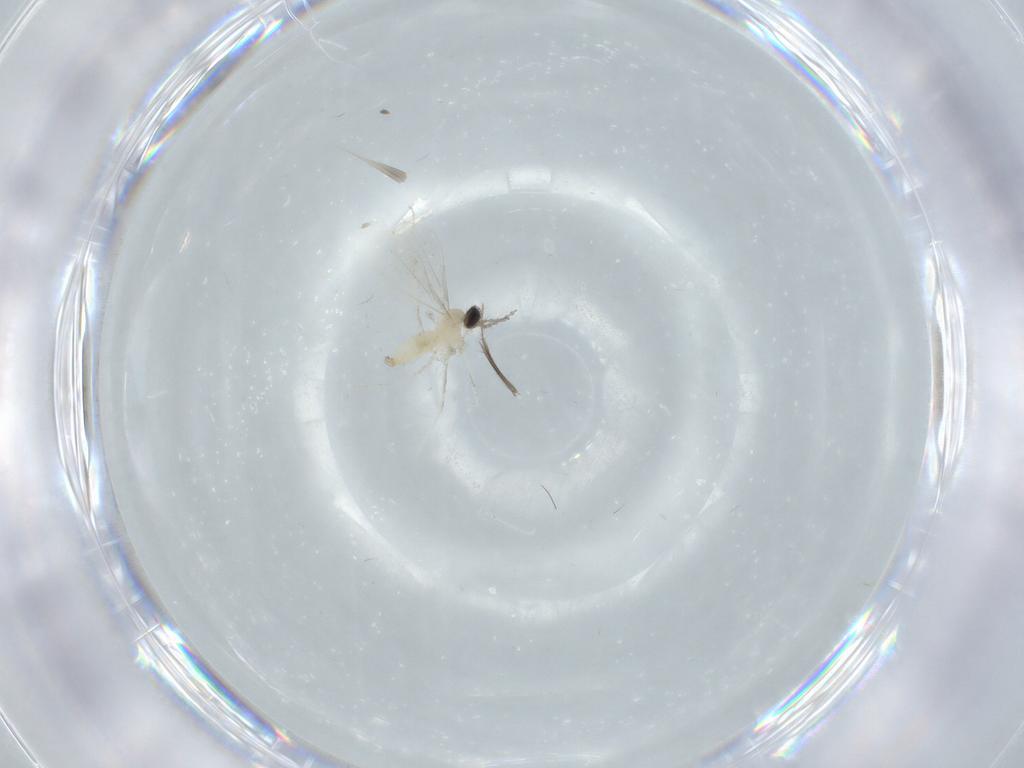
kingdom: Animalia
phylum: Arthropoda
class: Insecta
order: Diptera
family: Cecidomyiidae
